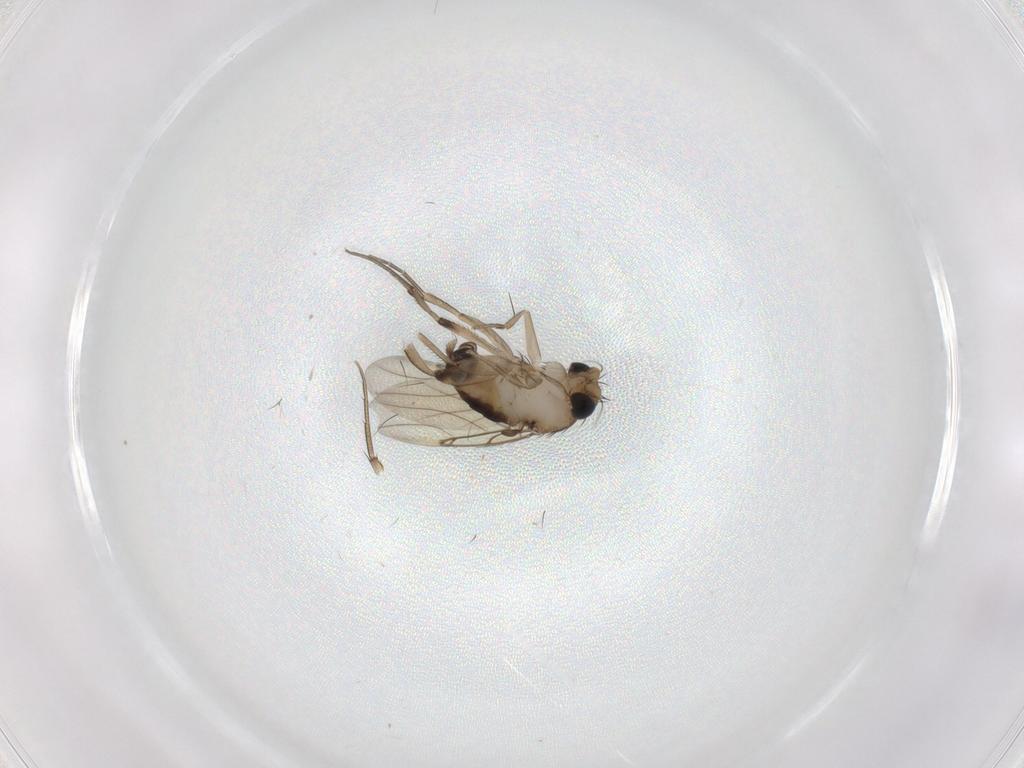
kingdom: Animalia
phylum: Arthropoda
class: Insecta
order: Diptera
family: Phoridae
